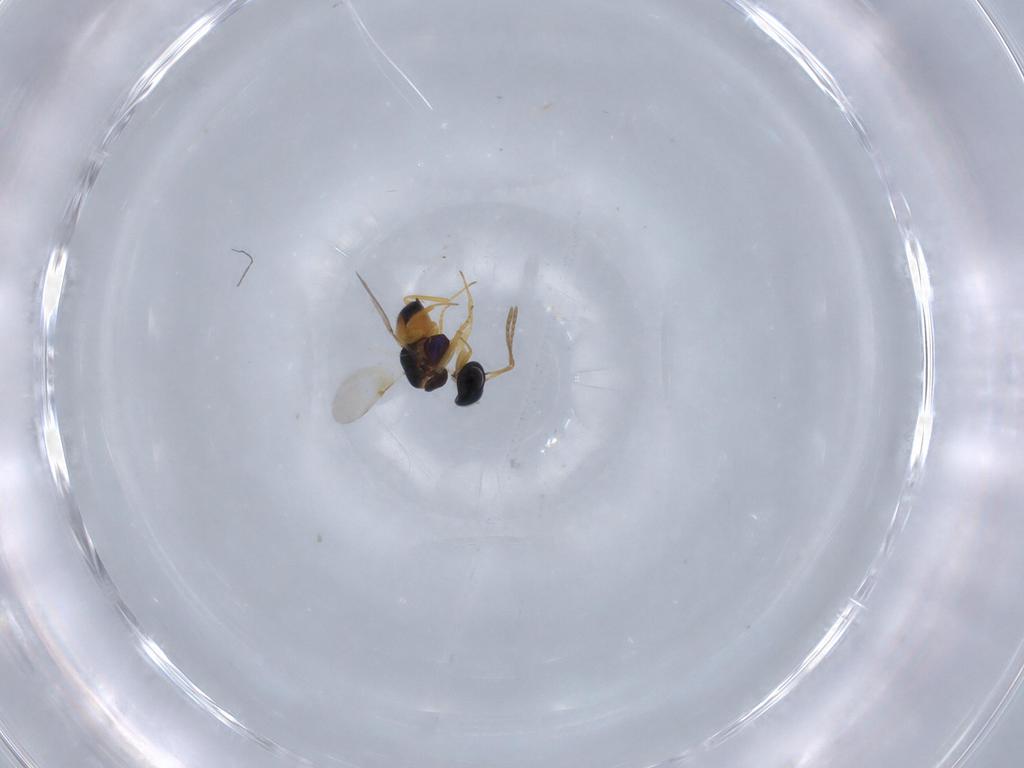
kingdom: Animalia
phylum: Arthropoda
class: Insecta
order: Hymenoptera
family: Encyrtidae
